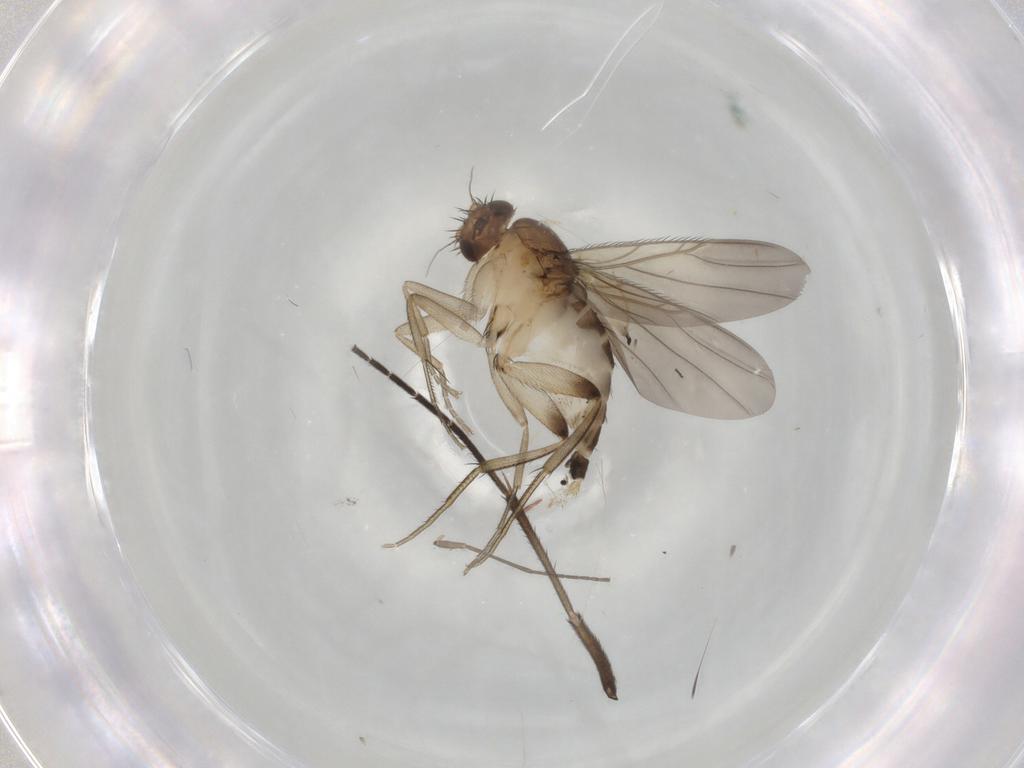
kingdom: Animalia
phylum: Arthropoda
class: Insecta
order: Diptera
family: Phoridae
